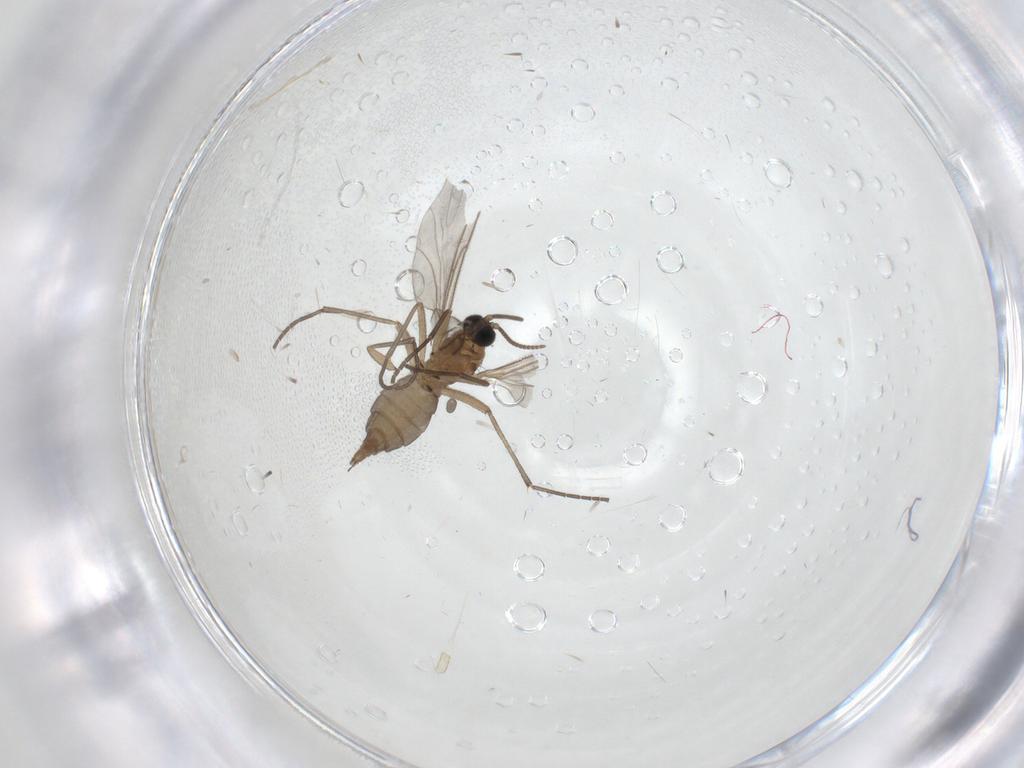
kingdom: Animalia
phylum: Arthropoda
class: Insecta
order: Diptera
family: Sciaridae
